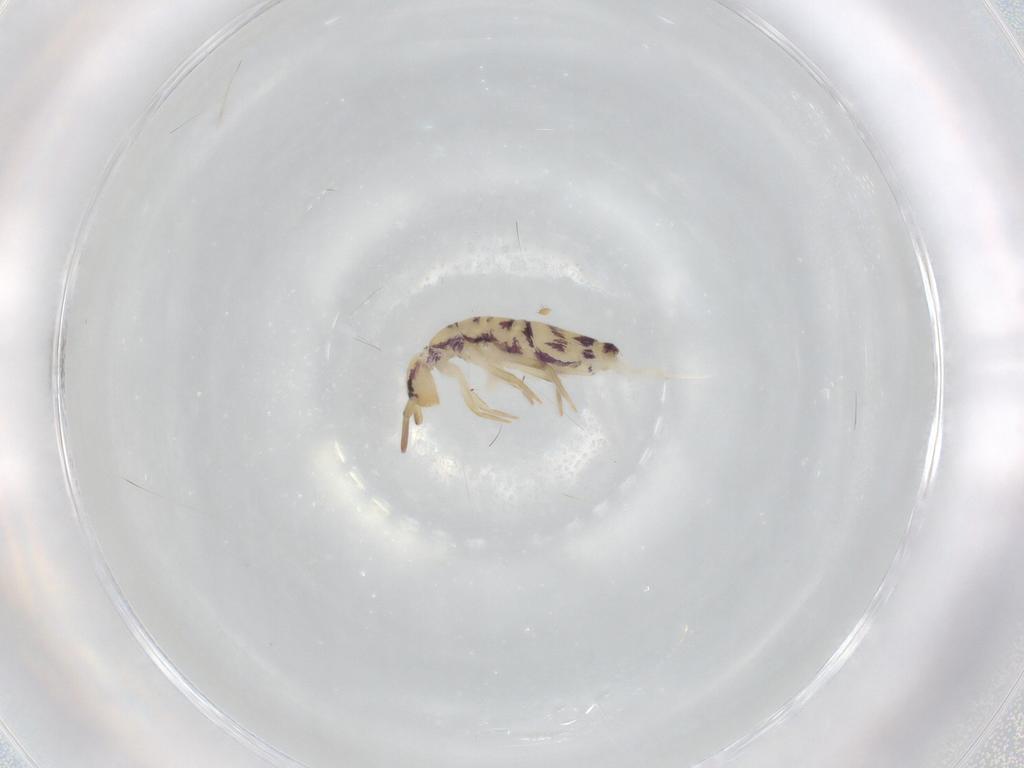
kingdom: Animalia
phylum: Arthropoda
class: Collembola
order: Entomobryomorpha
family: Entomobryidae
